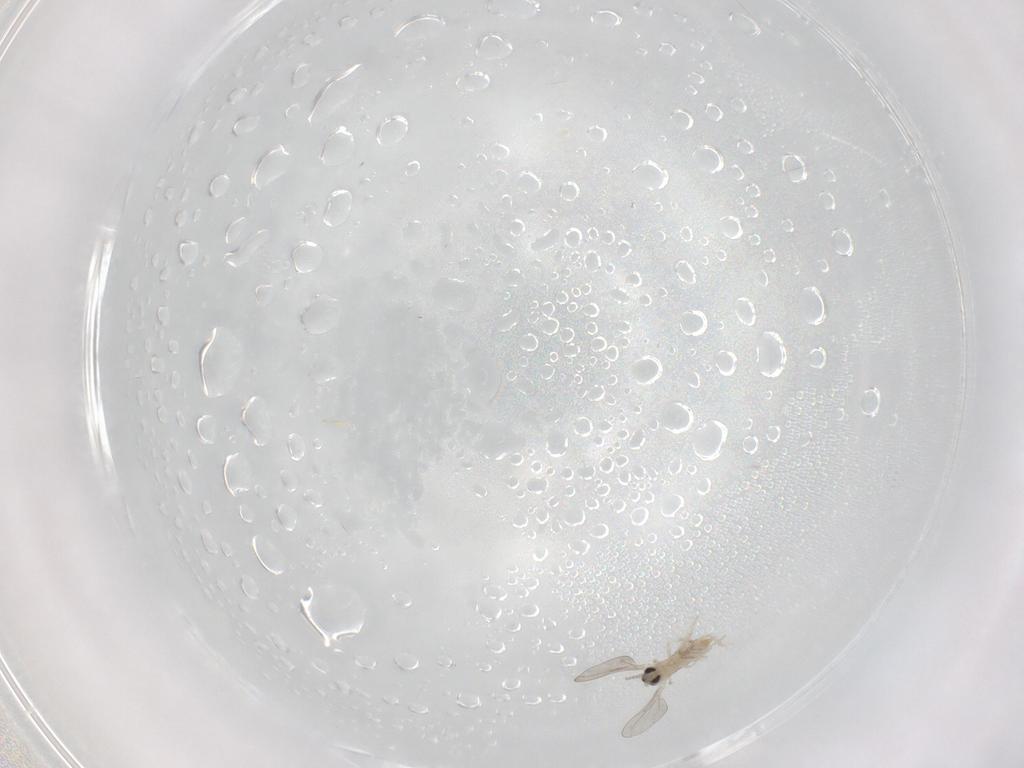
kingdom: Animalia
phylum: Arthropoda
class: Insecta
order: Diptera
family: Cecidomyiidae
